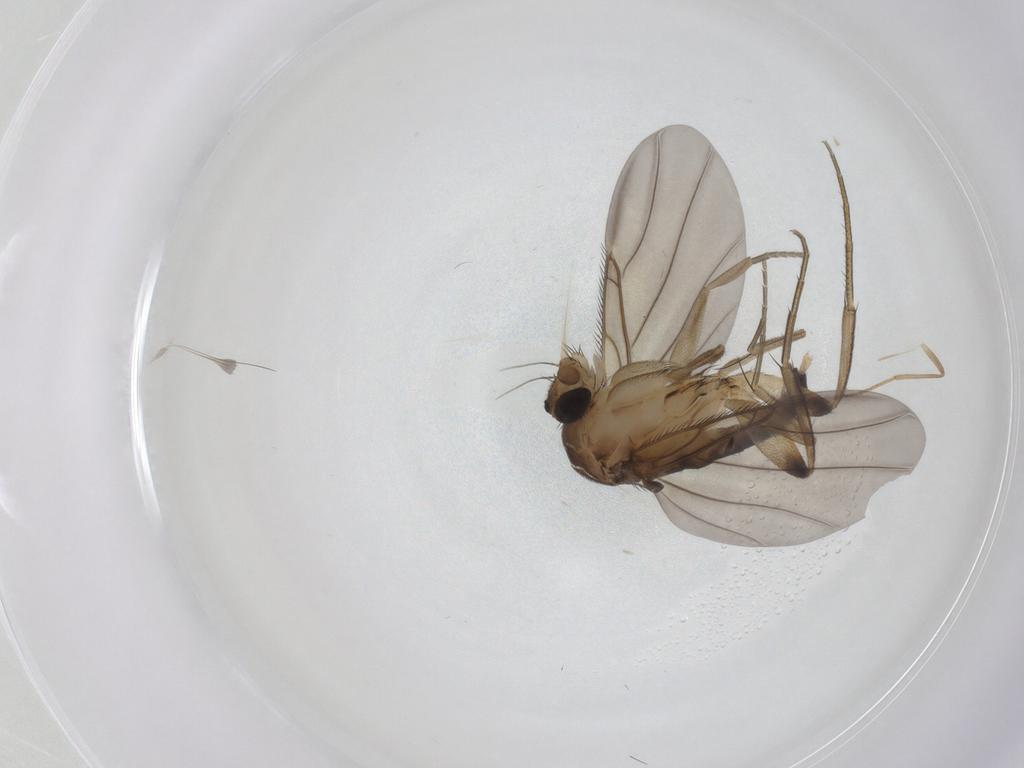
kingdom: Animalia
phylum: Arthropoda
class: Insecta
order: Diptera
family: Phoridae
